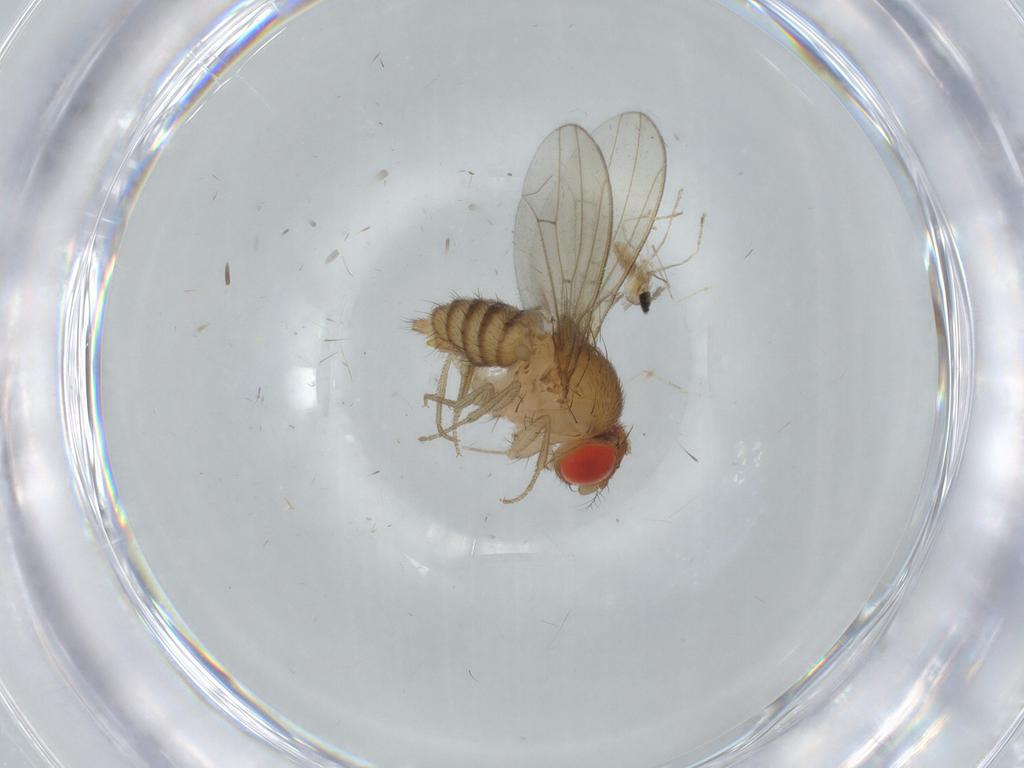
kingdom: Animalia
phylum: Arthropoda
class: Insecta
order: Diptera
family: Drosophilidae
